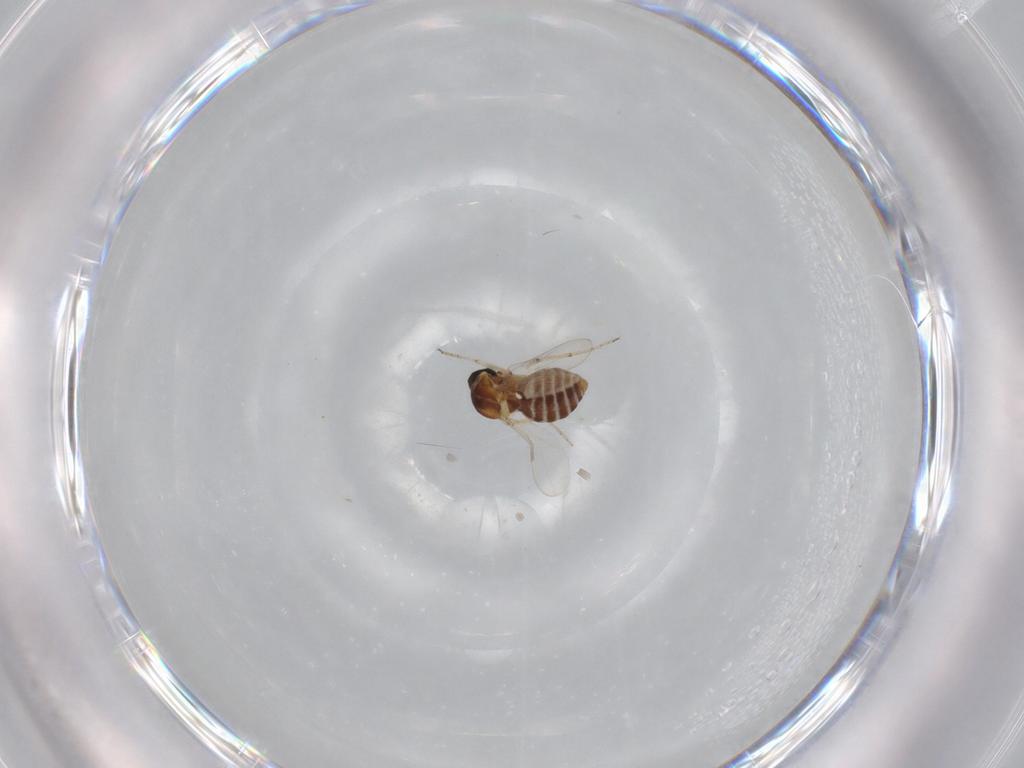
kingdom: Animalia
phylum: Arthropoda
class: Insecta
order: Diptera
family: Ceratopogonidae
